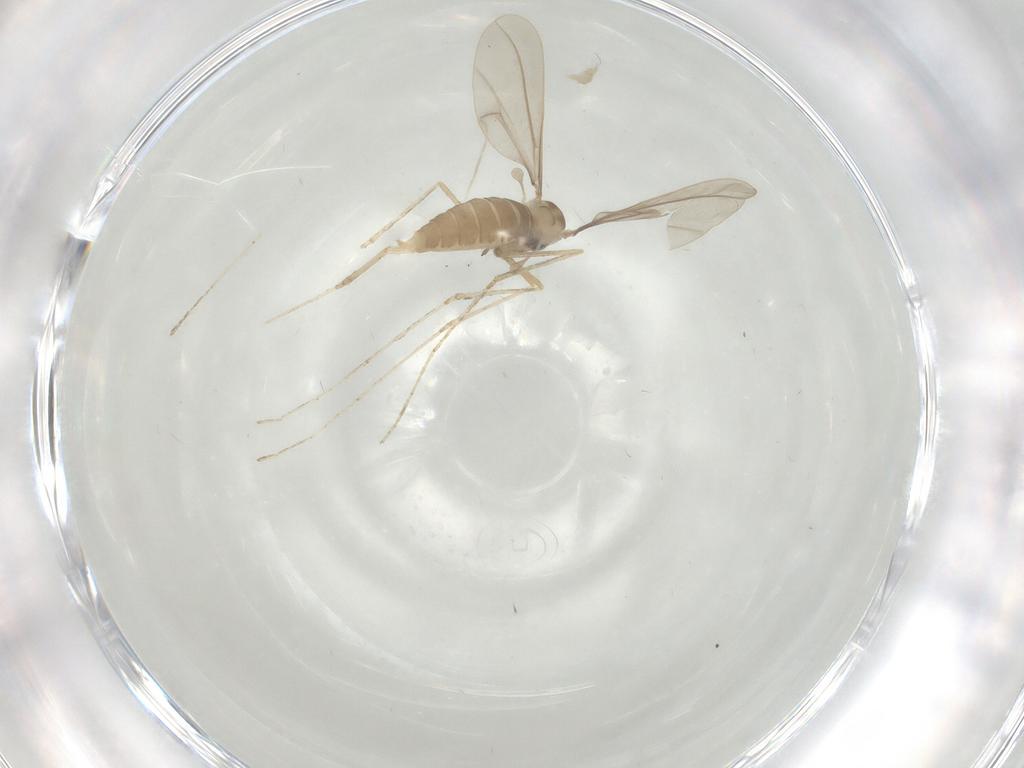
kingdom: Animalia
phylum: Arthropoda
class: Insecta
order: Diptera
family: Cecidomyiidae
